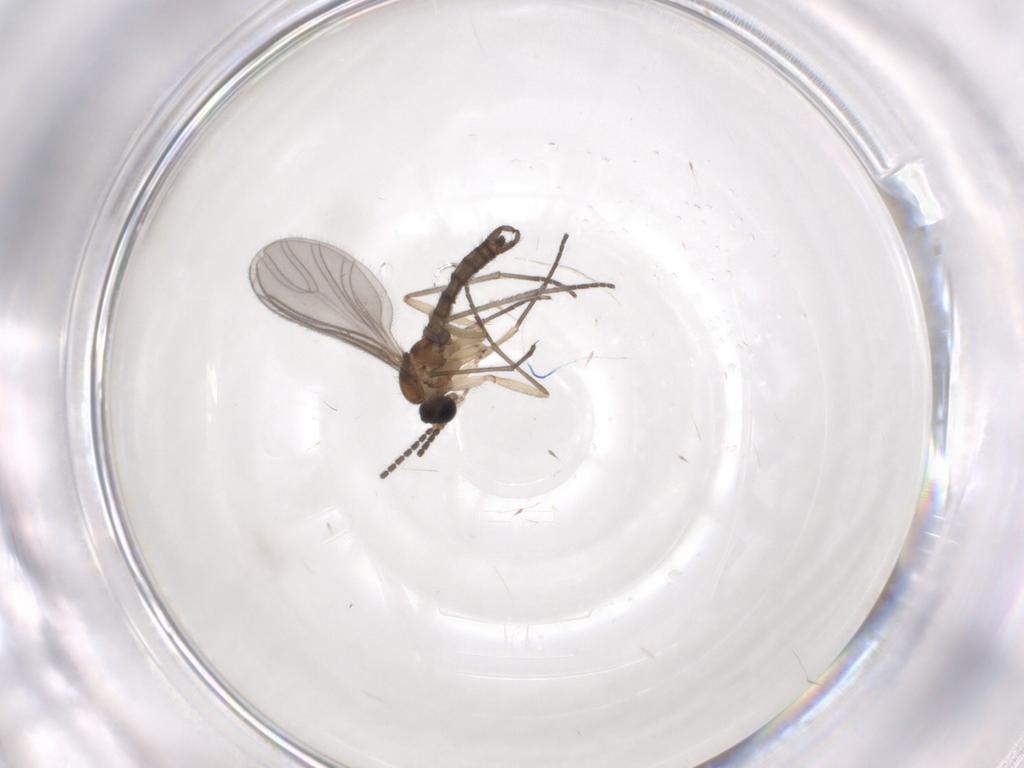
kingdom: Animalia
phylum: Arthropoda
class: Insecta
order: Diptera
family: Sciaridae
